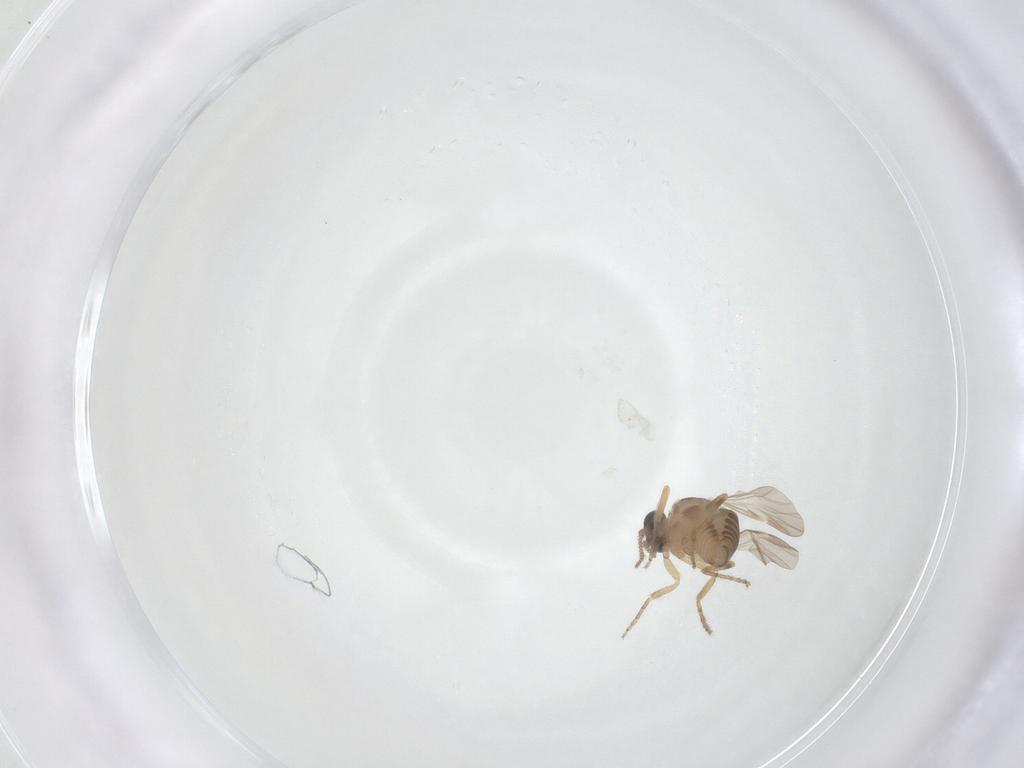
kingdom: Animalia
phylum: Arthropoda
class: Insecta
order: Diptera
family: Ceratopogonidae
